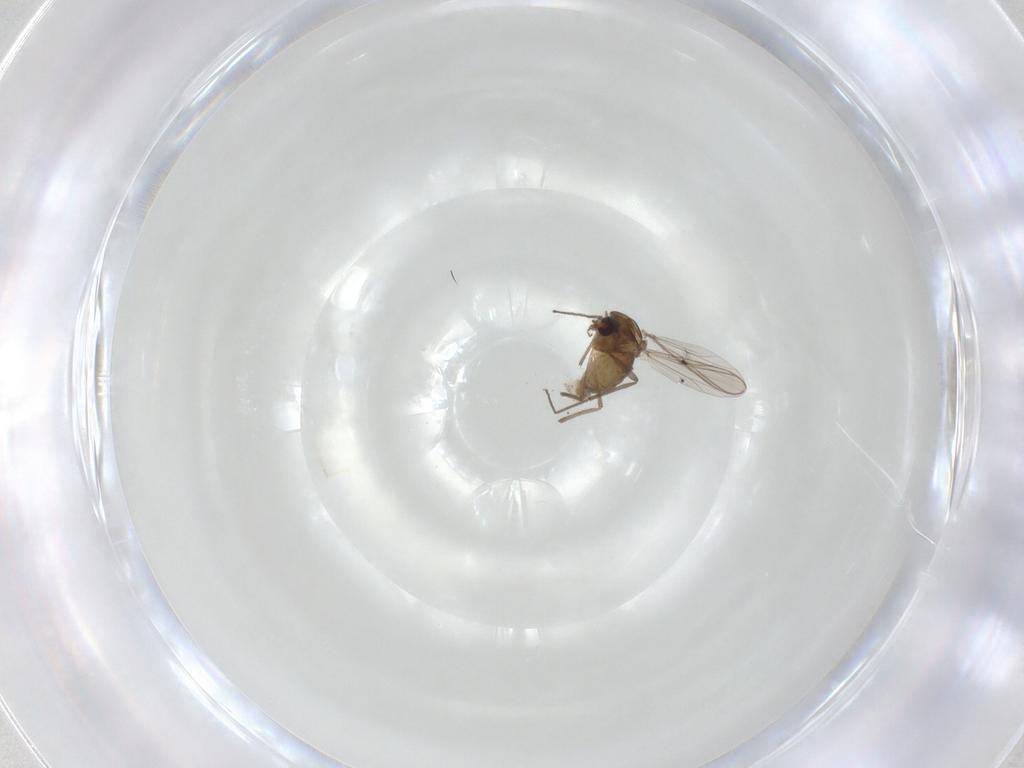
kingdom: Animalia
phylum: Arthropoda
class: Insecta
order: Diptera
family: Chironomidae
